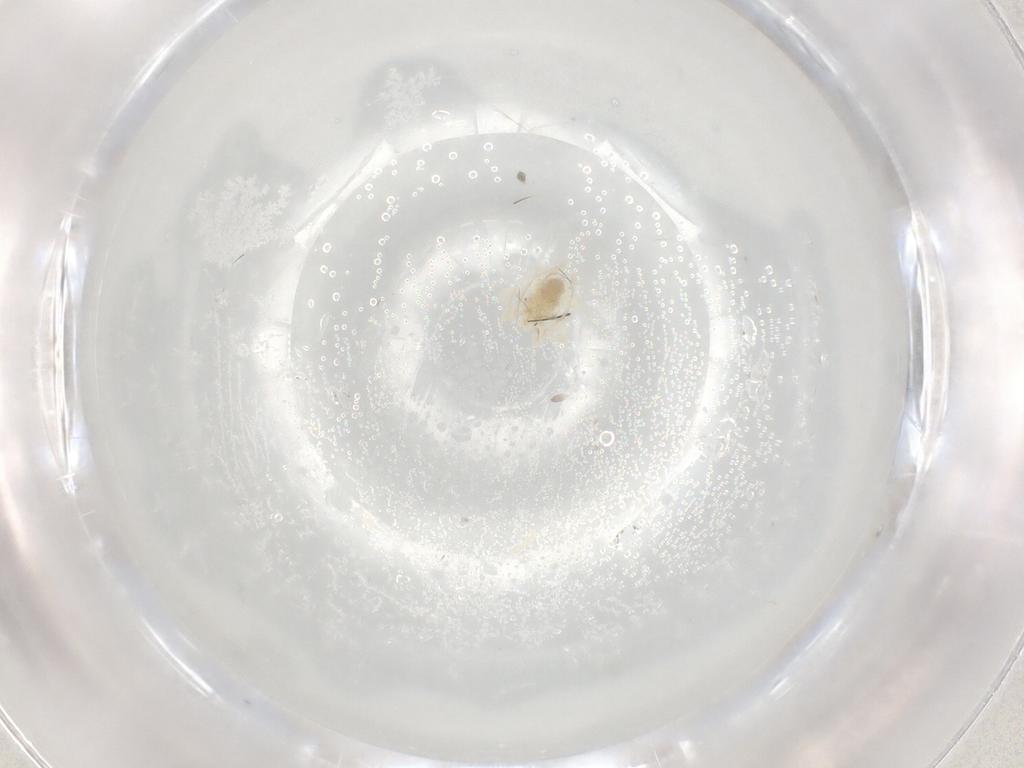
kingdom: Animalia
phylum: Arthropoda
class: Arachnida
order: Trombidiformes
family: Anystidae
